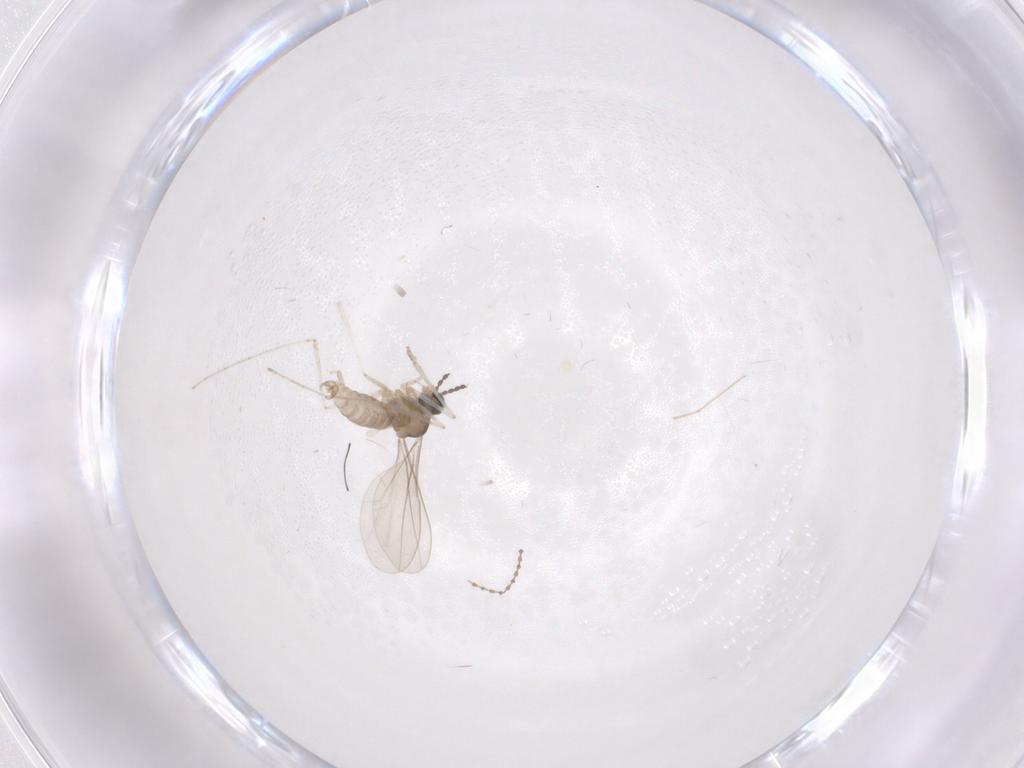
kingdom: Animalia
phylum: Arthropoda
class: Insecta
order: Diptera
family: Cecidomyiidae
